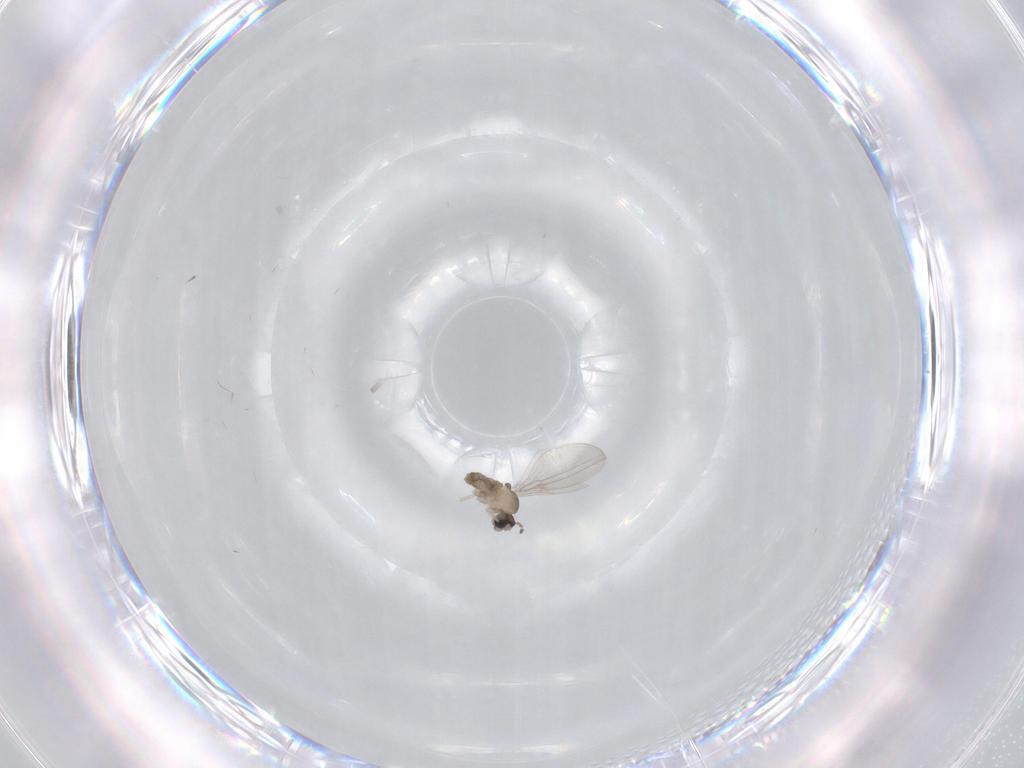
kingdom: Animalia
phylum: Arthropoda
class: Insecta
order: Diptera
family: Cecidomyiidae
